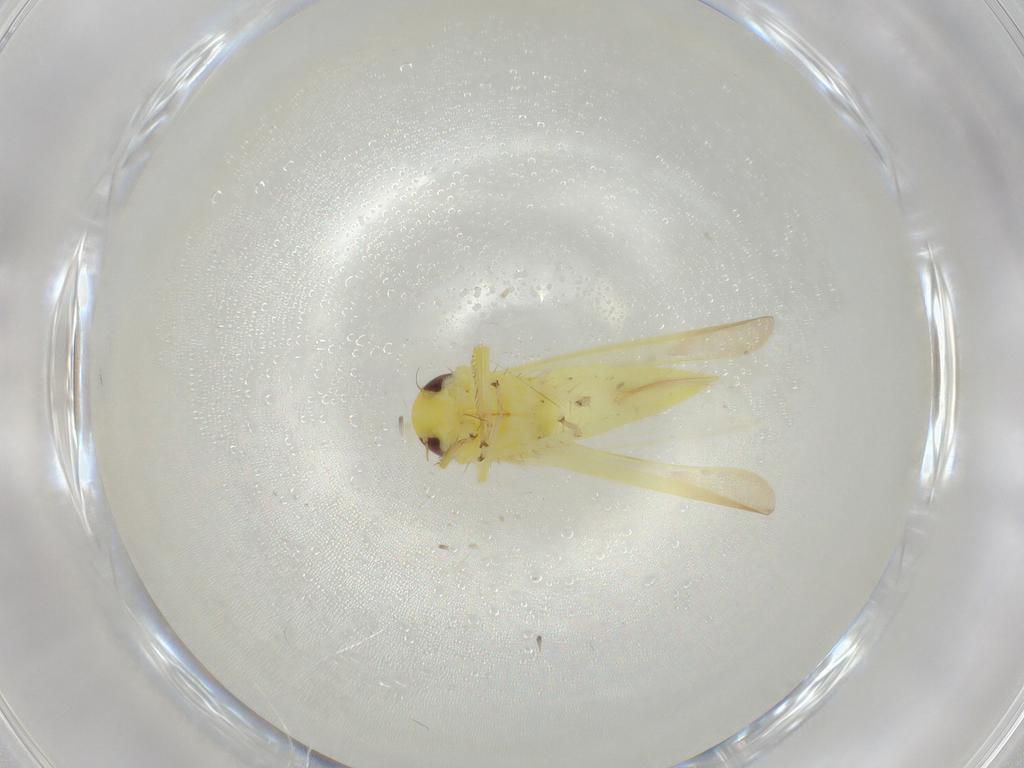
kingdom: Animalia
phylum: Arthropoda
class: Insecta
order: Hemiptera
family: Cicadellidae
